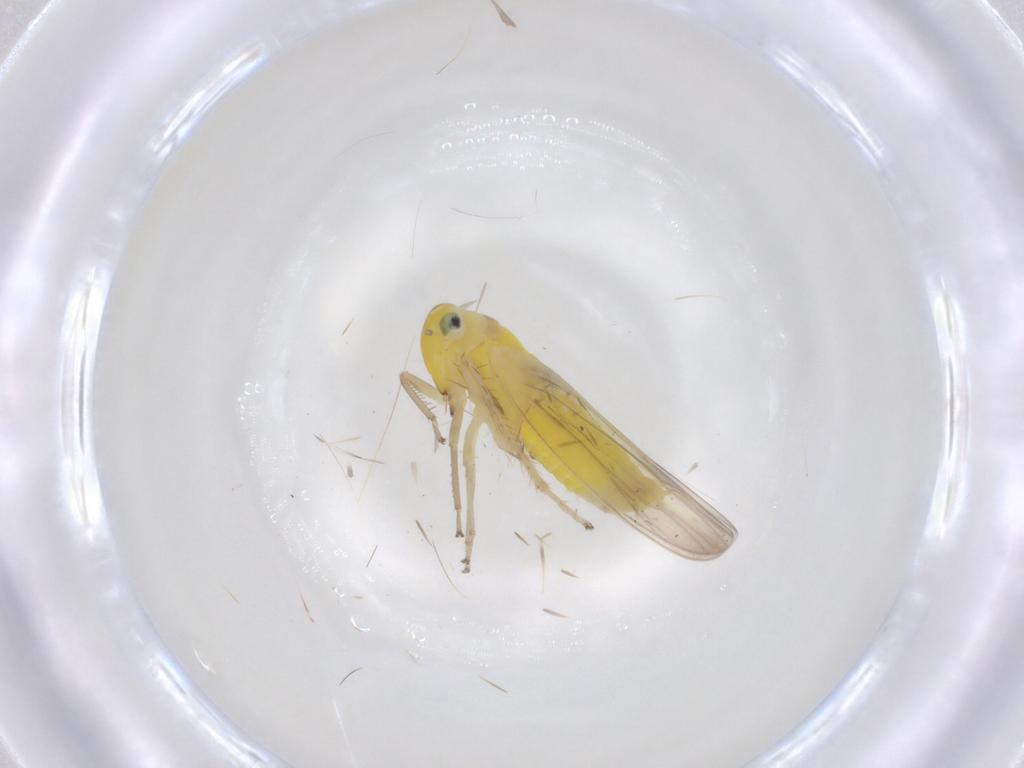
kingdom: Animalia
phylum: Arthropoda
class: Insecta
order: Hemiptera
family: Cicadellidae
